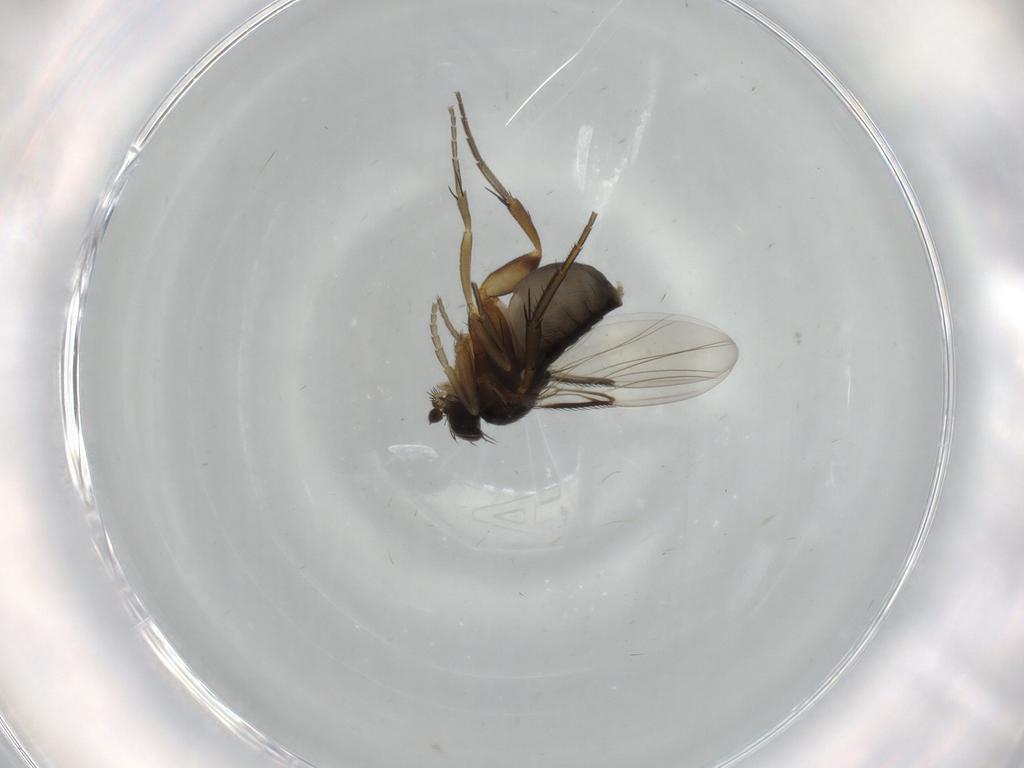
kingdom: Animalia
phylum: Arthropoda
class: Insecta
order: Diptera
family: Phoridae
